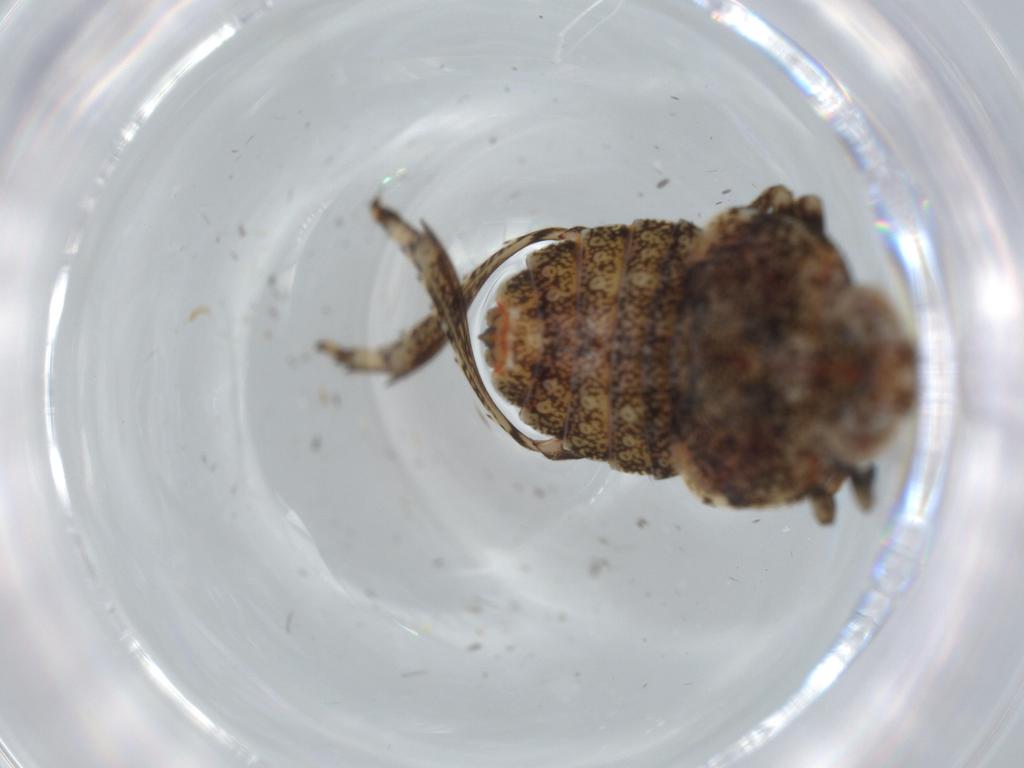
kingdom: Animalia
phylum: Arthropoda
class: Insecta
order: Hemiptera
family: Issidae
